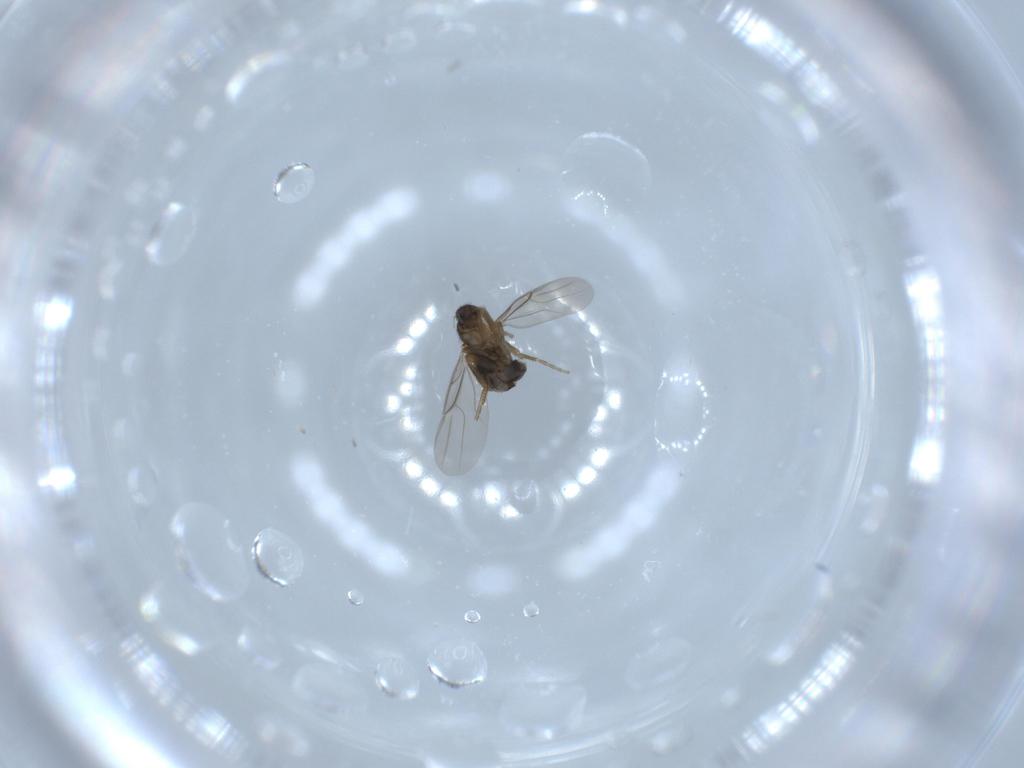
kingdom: Animalia
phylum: Arthropoda
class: Insecta
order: Diptera
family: Phoridae
